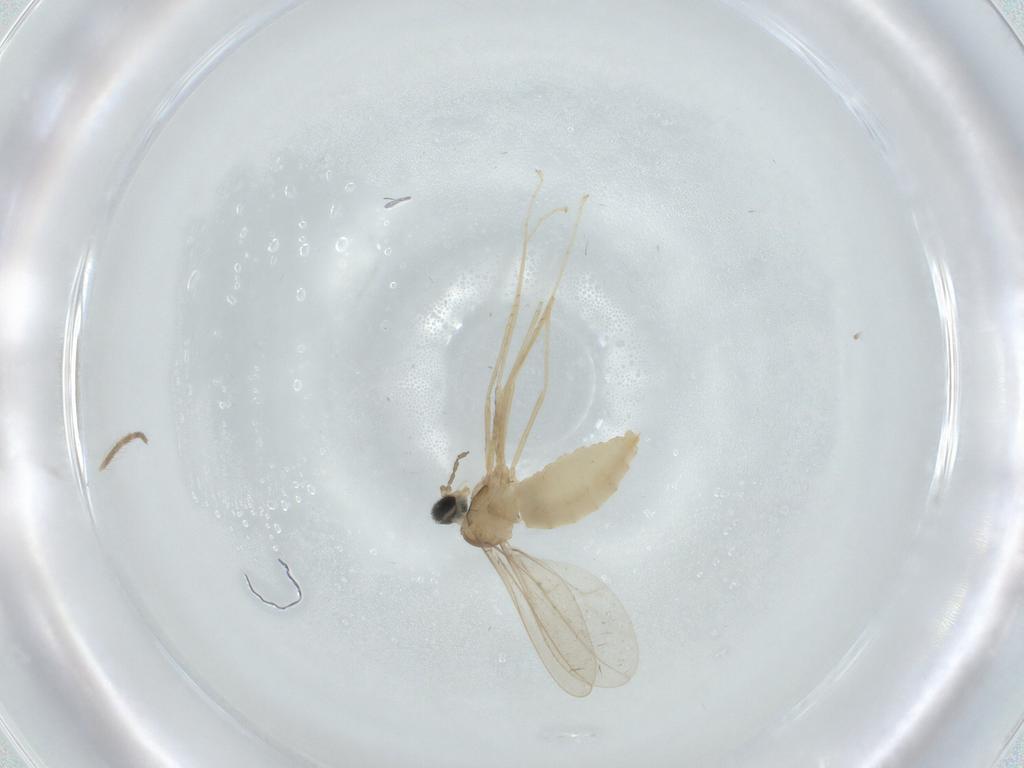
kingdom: Animalia
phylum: Arthropoda
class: Insecta
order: Diptera
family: Cecidomyiidae
